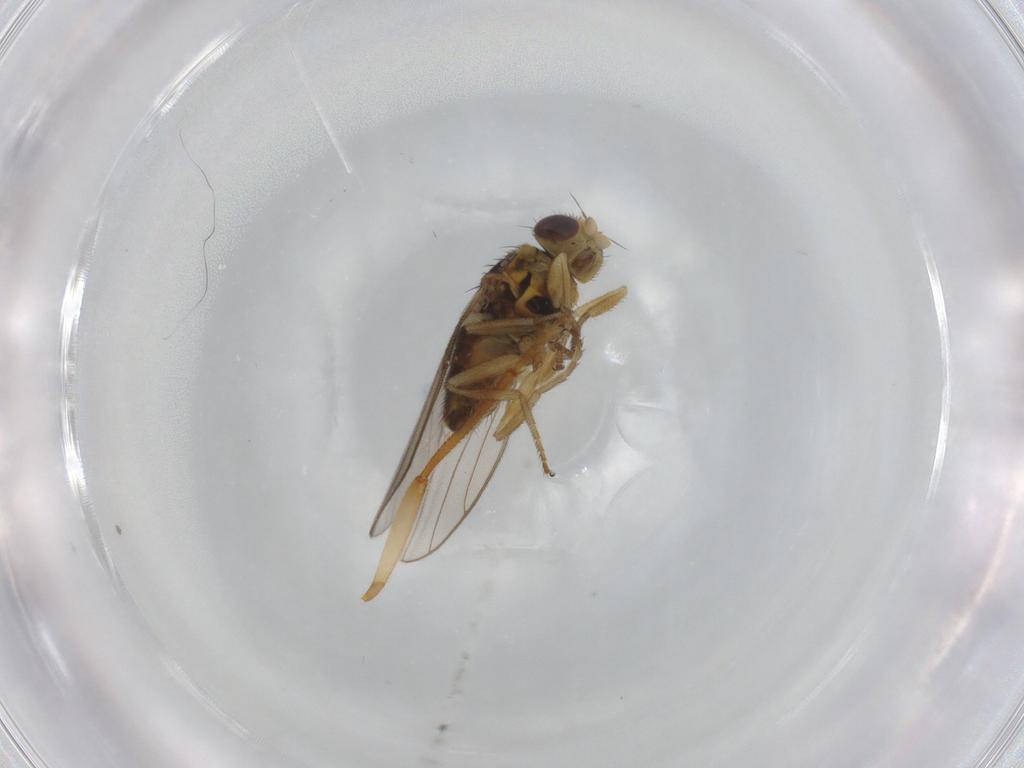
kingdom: Animalia
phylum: Arthropoda
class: Insecta
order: Diptera
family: Chloropidae
